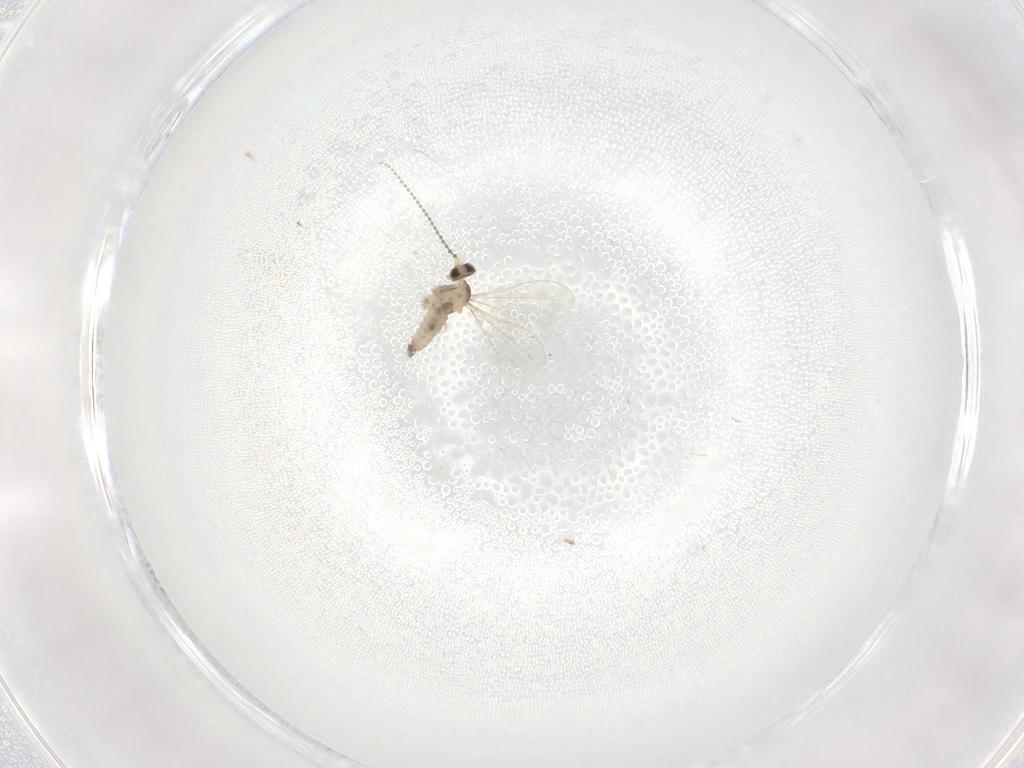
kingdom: Animalia
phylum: Arthropoda
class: Insecta
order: Diptera
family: Cecidomyiidae
